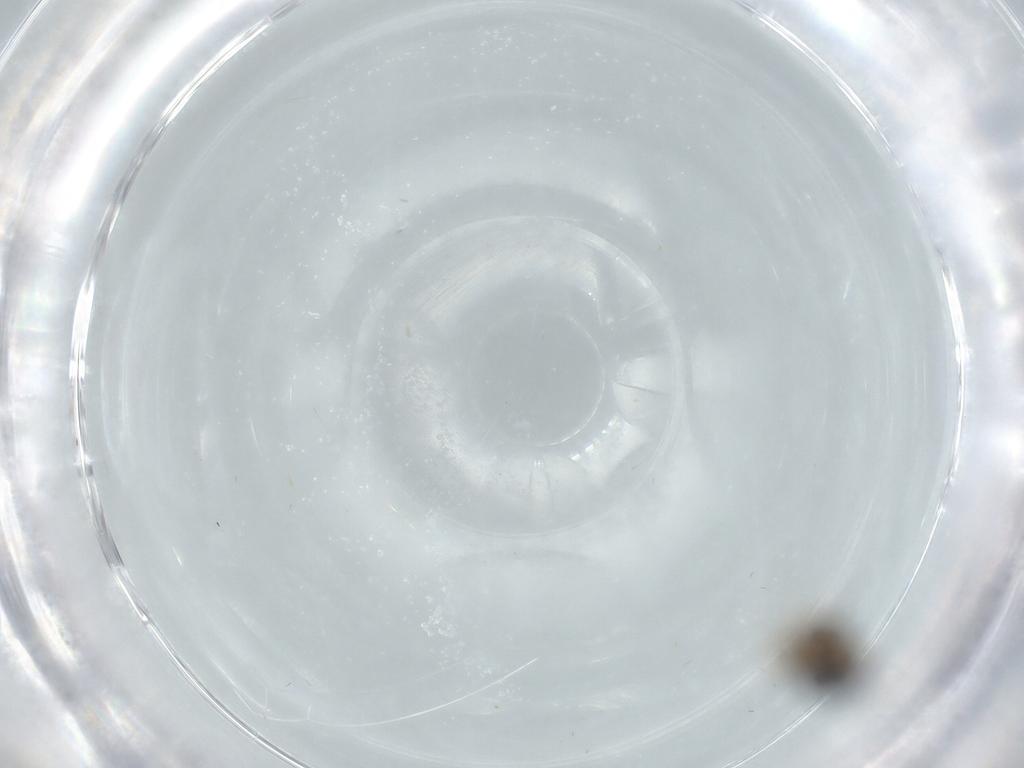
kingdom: Animalia
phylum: Arthropoda
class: Insecta
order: Hymenoptera
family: Diapriidae
